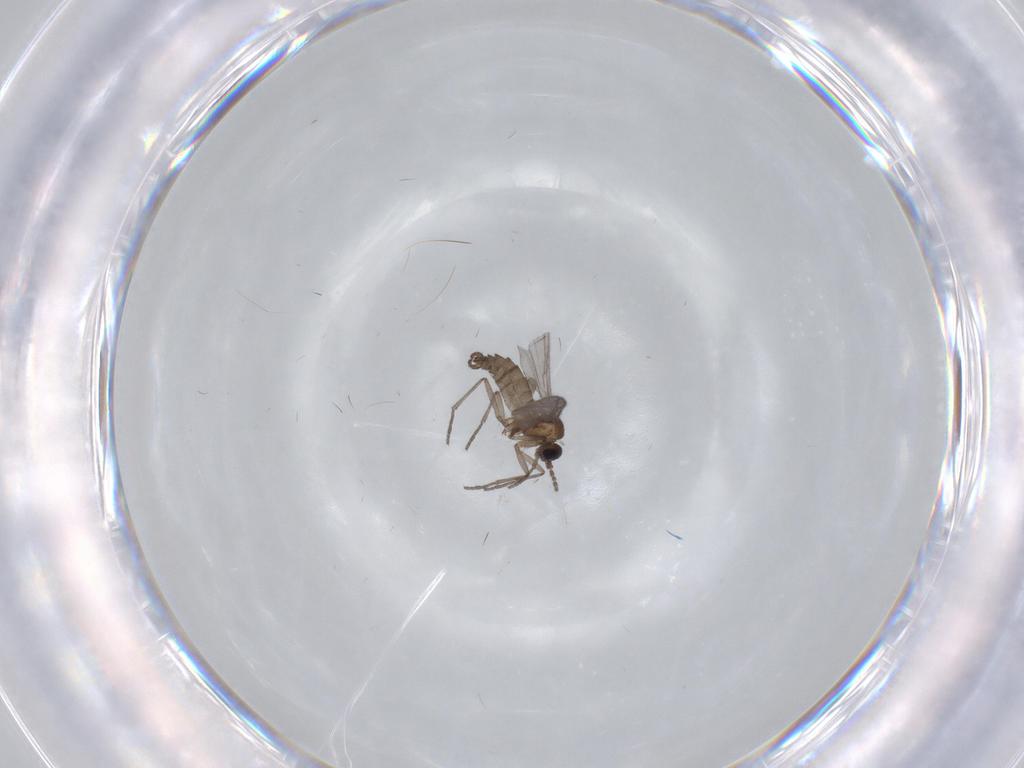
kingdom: Animalia
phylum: Arthropoda
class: Insecta
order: Diptera
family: Sciaridae
